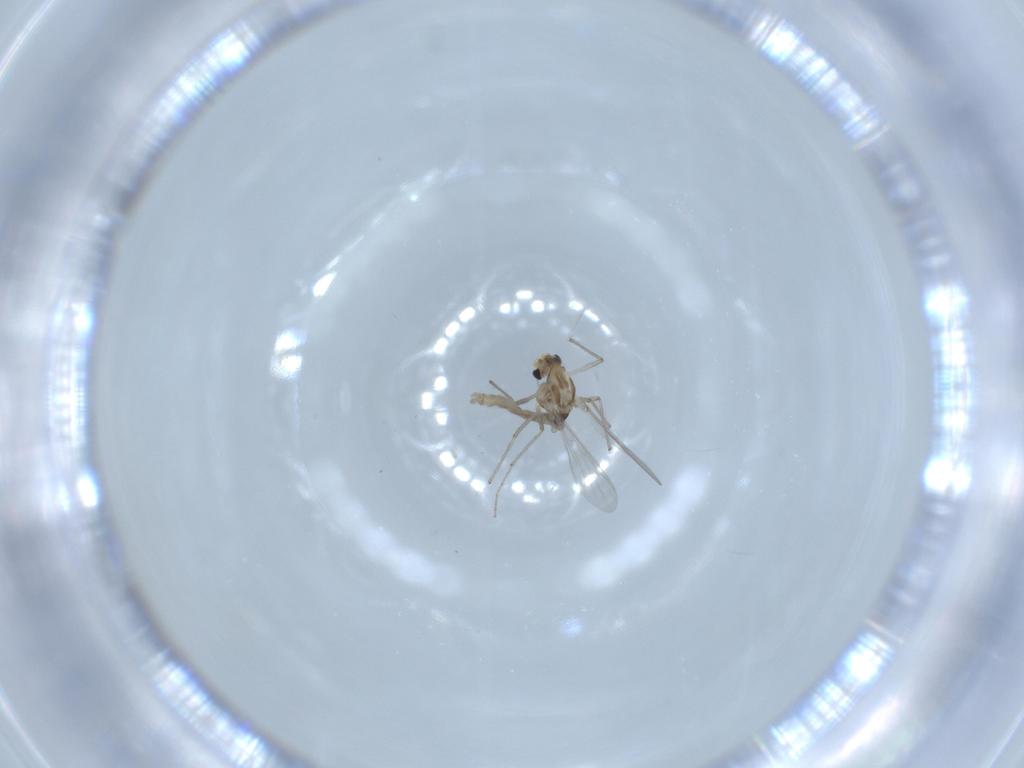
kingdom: Animalia
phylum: Arthropoda
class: Insecta
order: Diptera
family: Chironomidae
